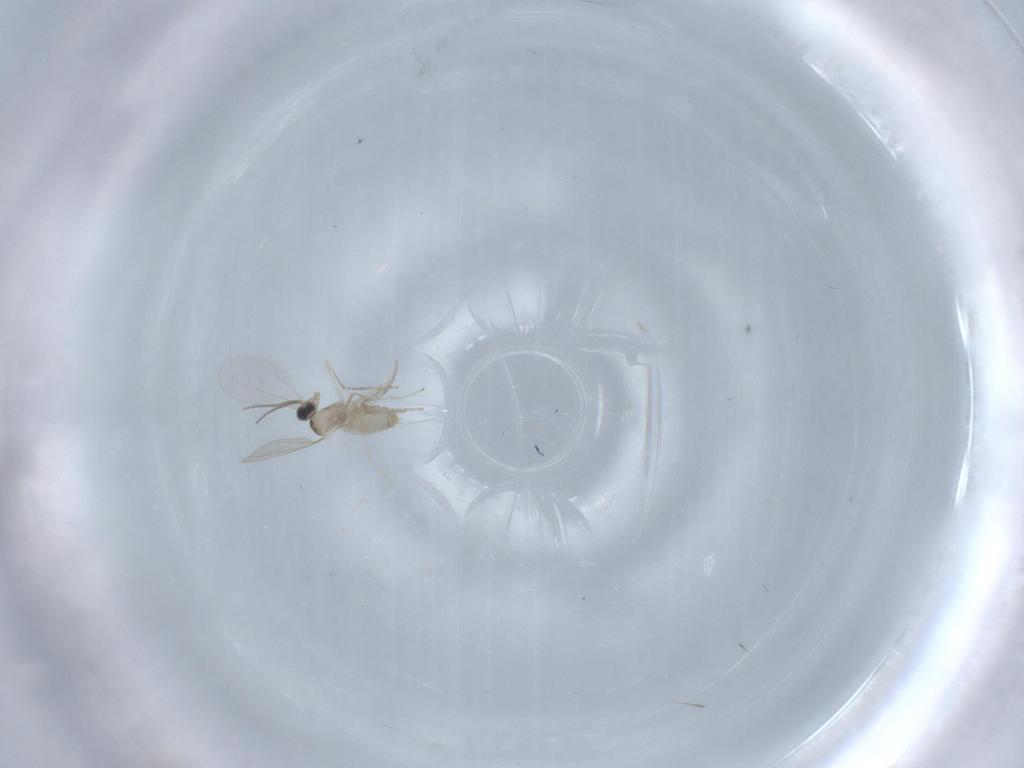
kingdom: Animalia
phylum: Arthropoda
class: Insecta
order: Diptera
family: Cecidomyiidae
